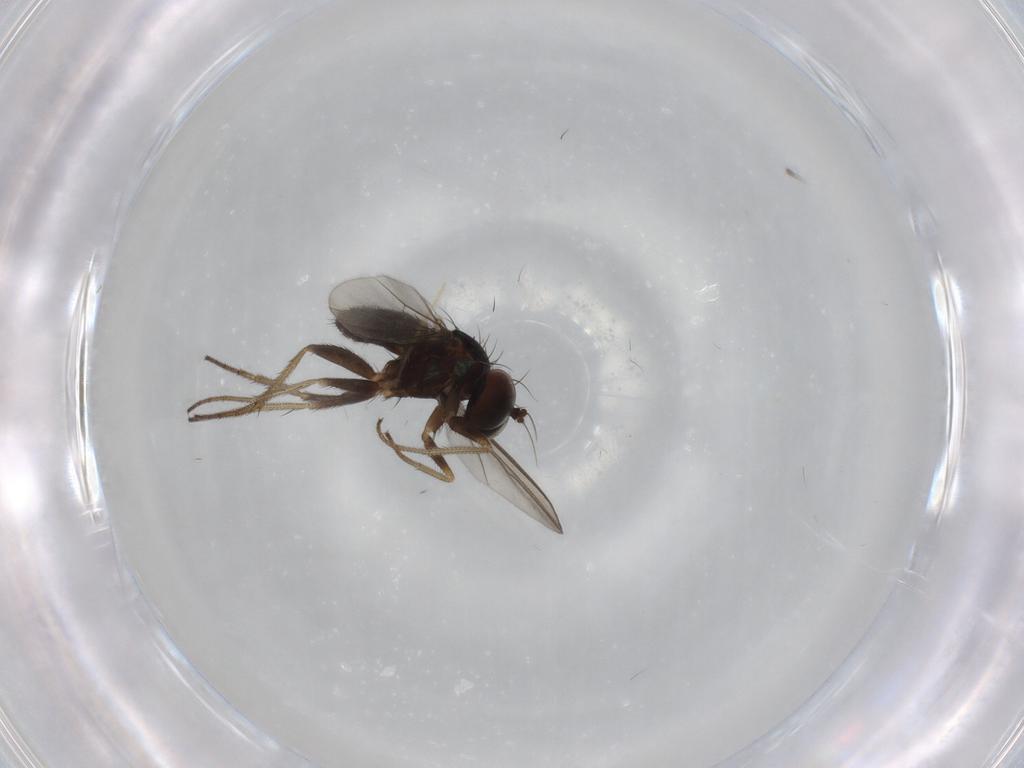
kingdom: Animalia
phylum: Arthropoda
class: Insecta
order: Diptera
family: Chironomidae
